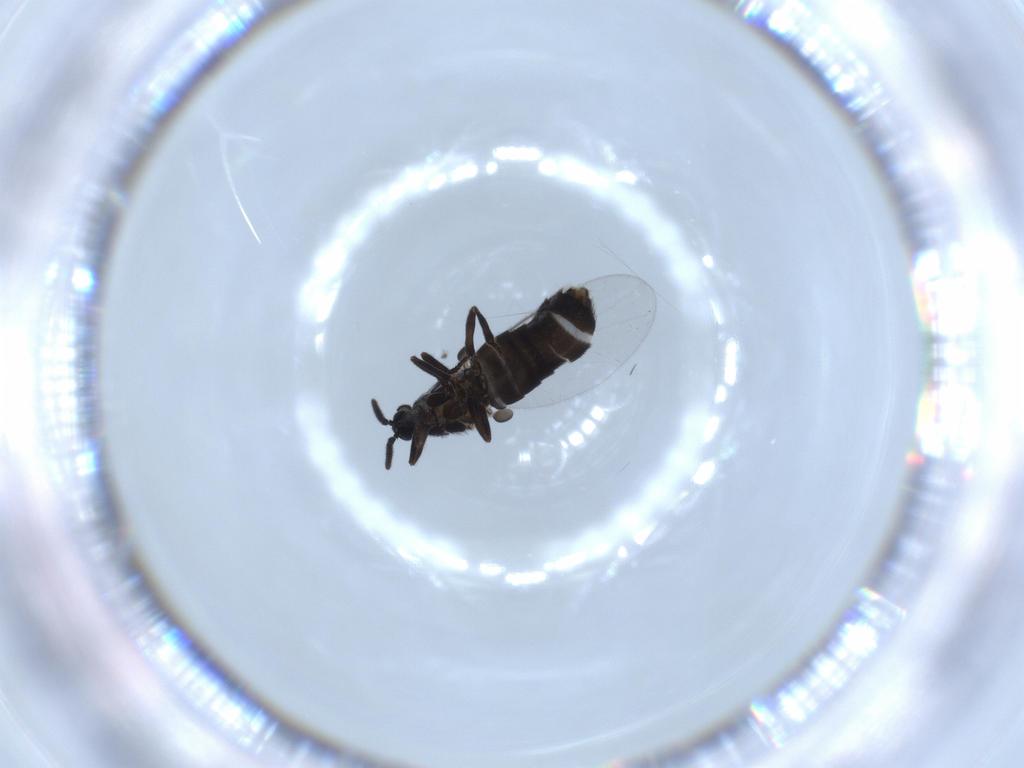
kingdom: Animalia
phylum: Arthropoda
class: Insecta
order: Diptera
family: Scatopsidae
